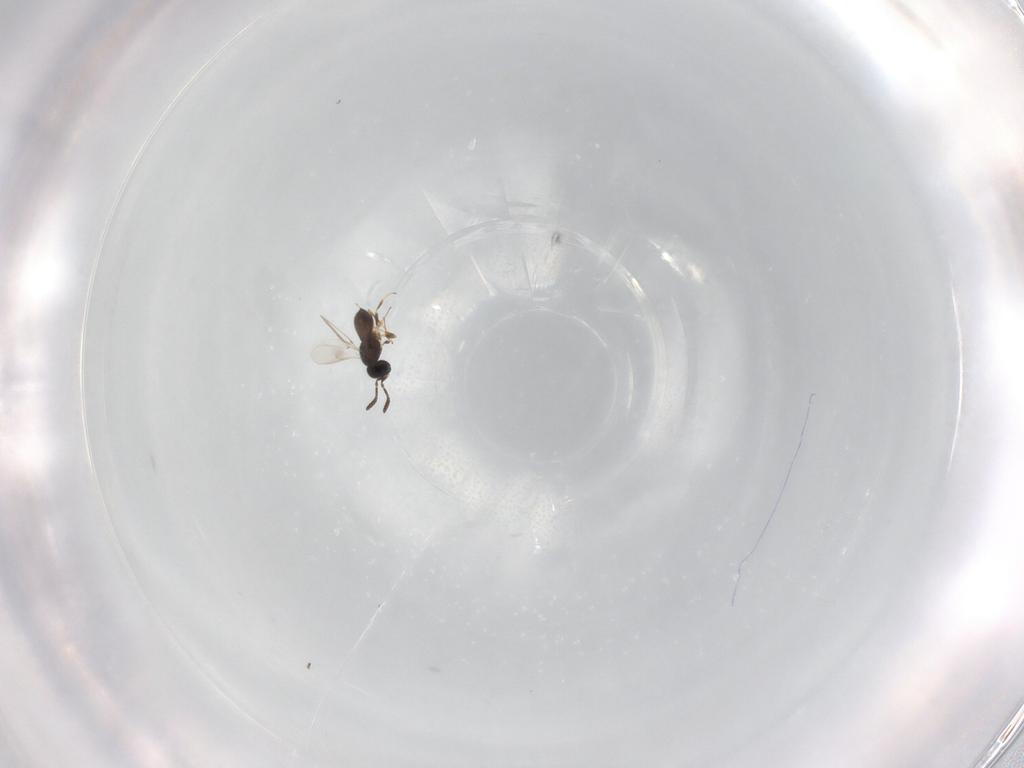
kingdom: Animalia
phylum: Arthropoda
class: Insecta
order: Hymenoptera
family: Scelionidae
